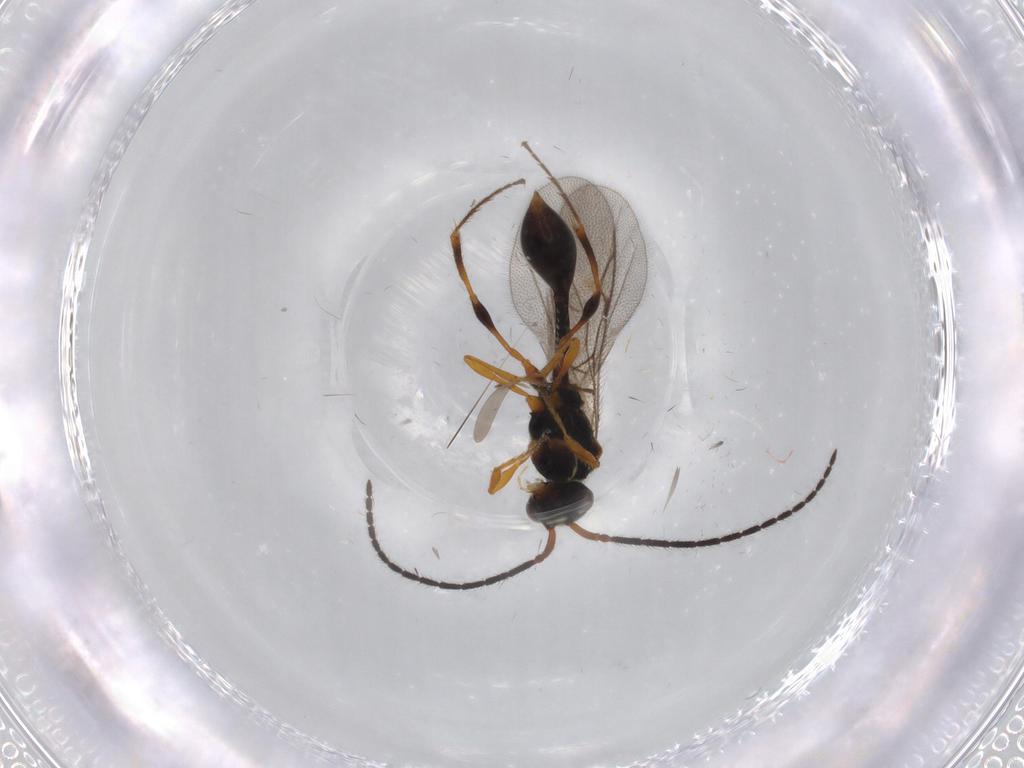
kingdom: Animalia
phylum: Arthropoda
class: Insecta
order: Hymenoptera
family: Diapriidae
